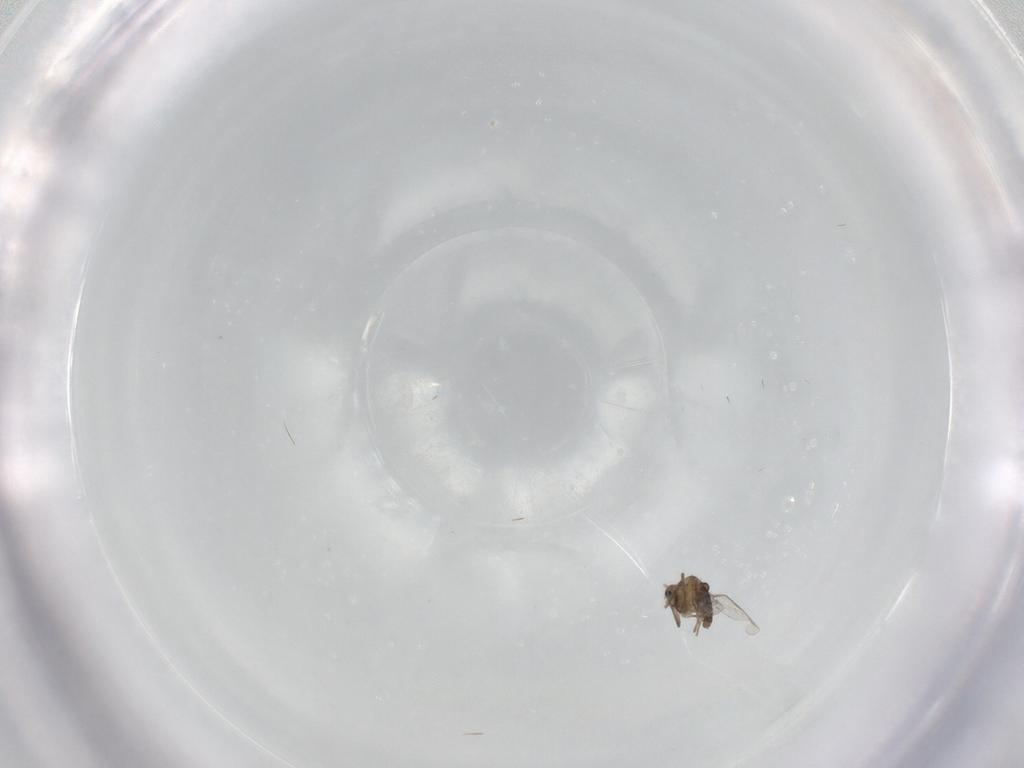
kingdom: Animalia
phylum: Arthropoda
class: Insecta
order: Diptera
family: Chironomidae
